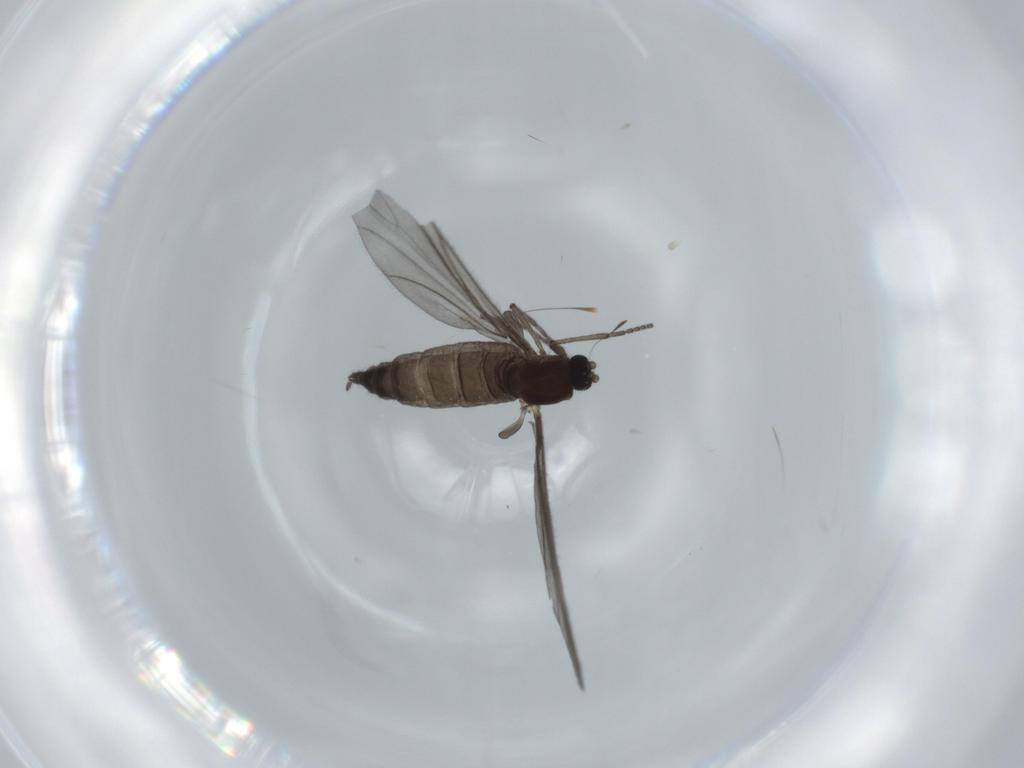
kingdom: Animalia
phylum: Arthropoda
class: Insecta
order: Diptera
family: Sciaridae
